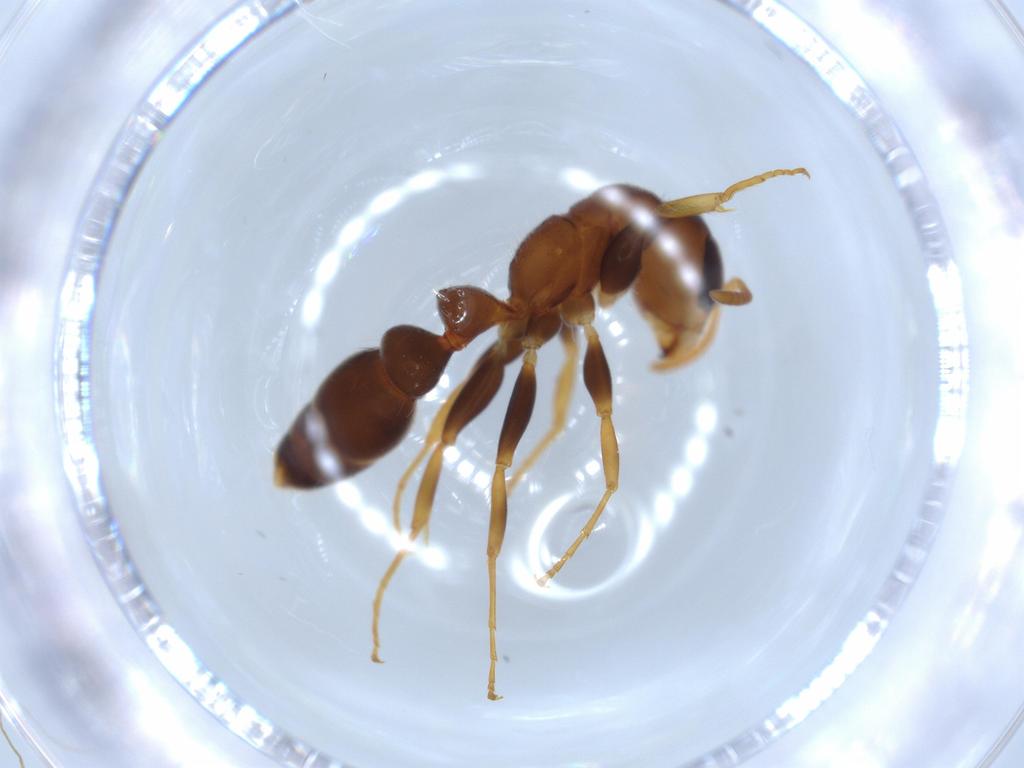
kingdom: Animalia
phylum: Arthropoda
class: Insecta
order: Hymenoptera
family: Formicidae
